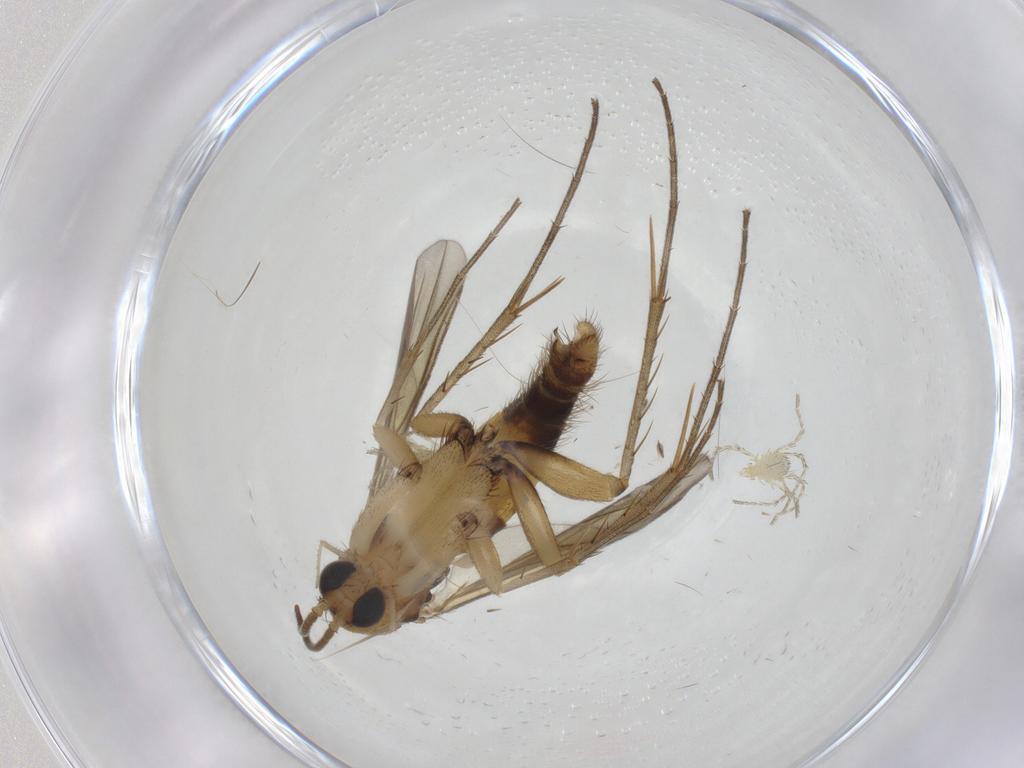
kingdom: Animalia
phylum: Arthropoda
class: Insecta
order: Diptera
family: Mycetophilidae
